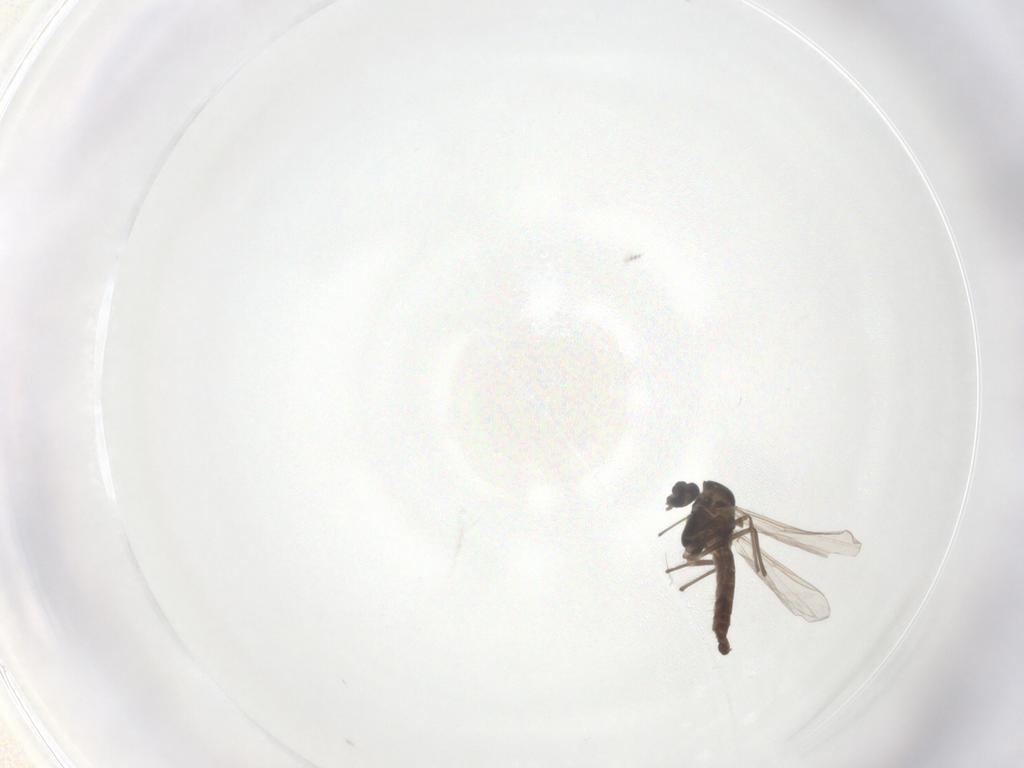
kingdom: Animalia
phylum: Arthropoda
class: Insecta
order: Diptera
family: Chironomidae
